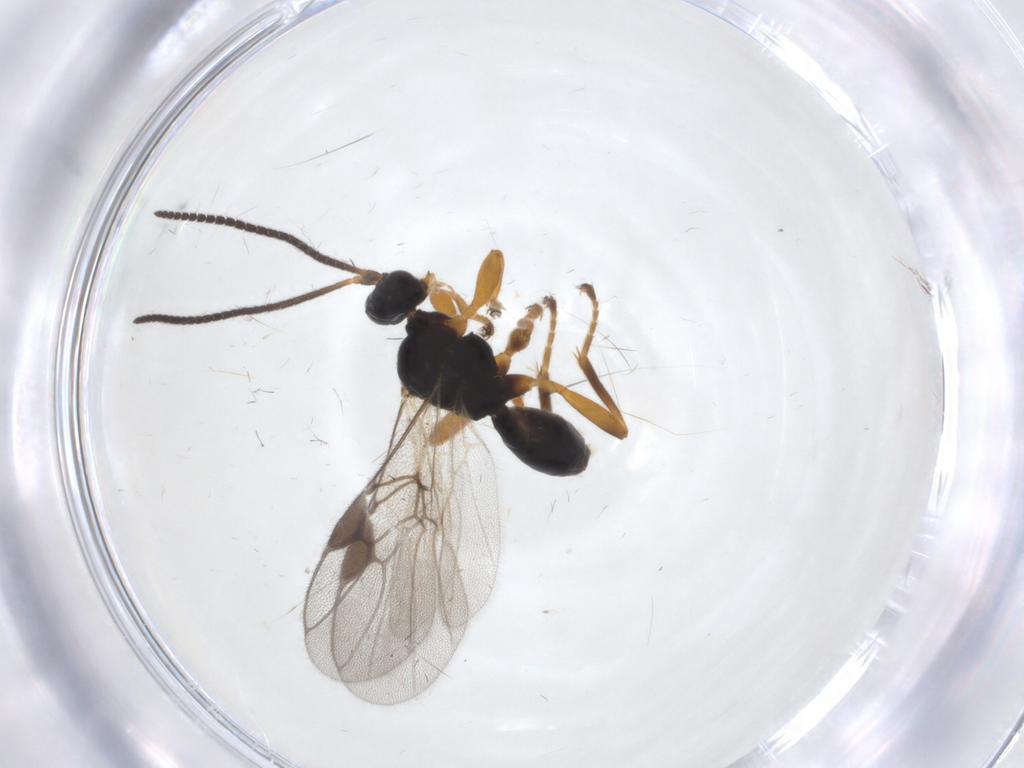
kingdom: Animalia
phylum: Arthropoda
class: Insecta
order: Hymenoptera
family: Braconidae
